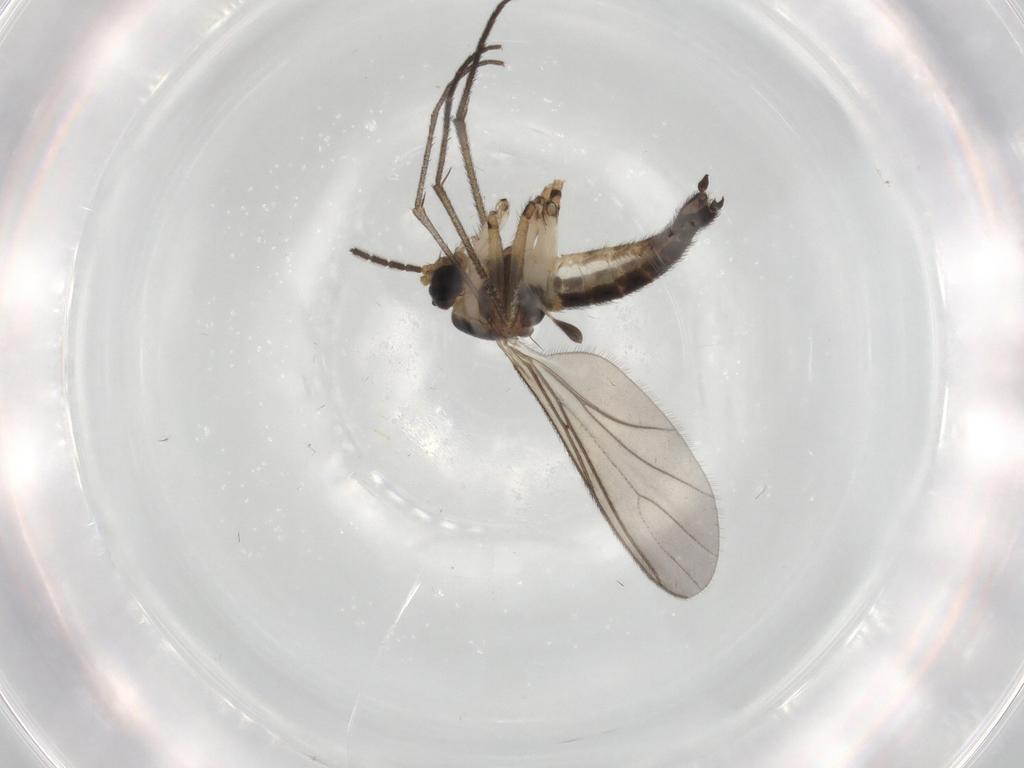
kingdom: Animalia
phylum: Arthropoda
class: Insecta
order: Diptera
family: Sciaridae
